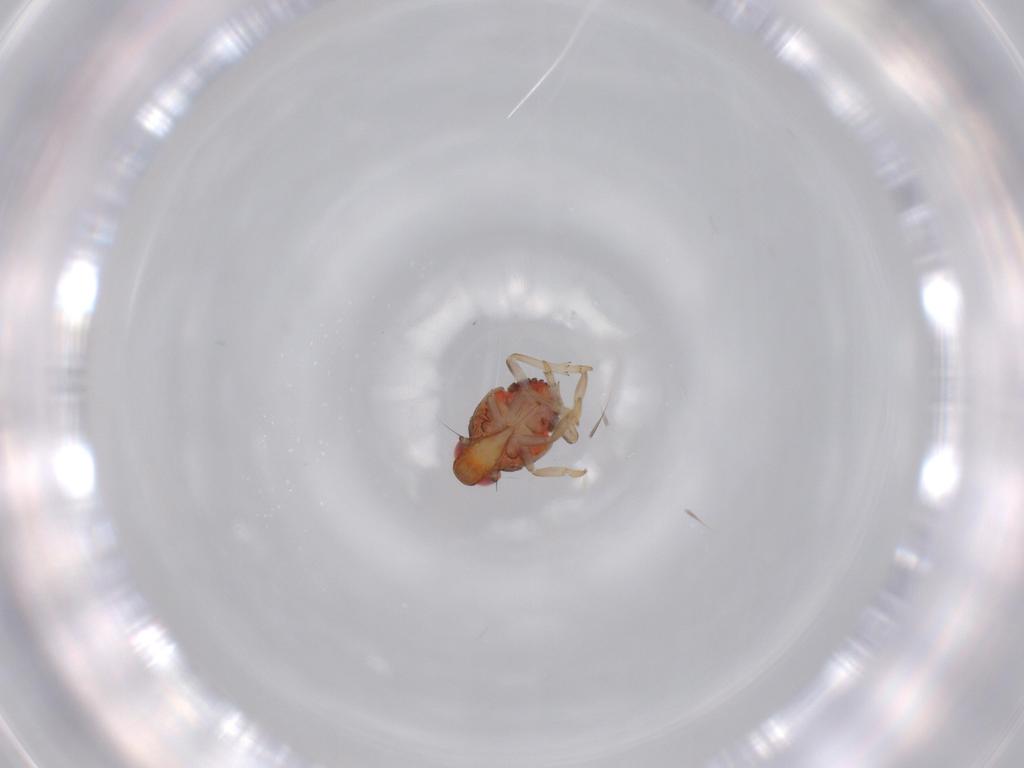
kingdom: Animalia
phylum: Arthropoda
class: Insecta
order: Hemiptera
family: Issidae
